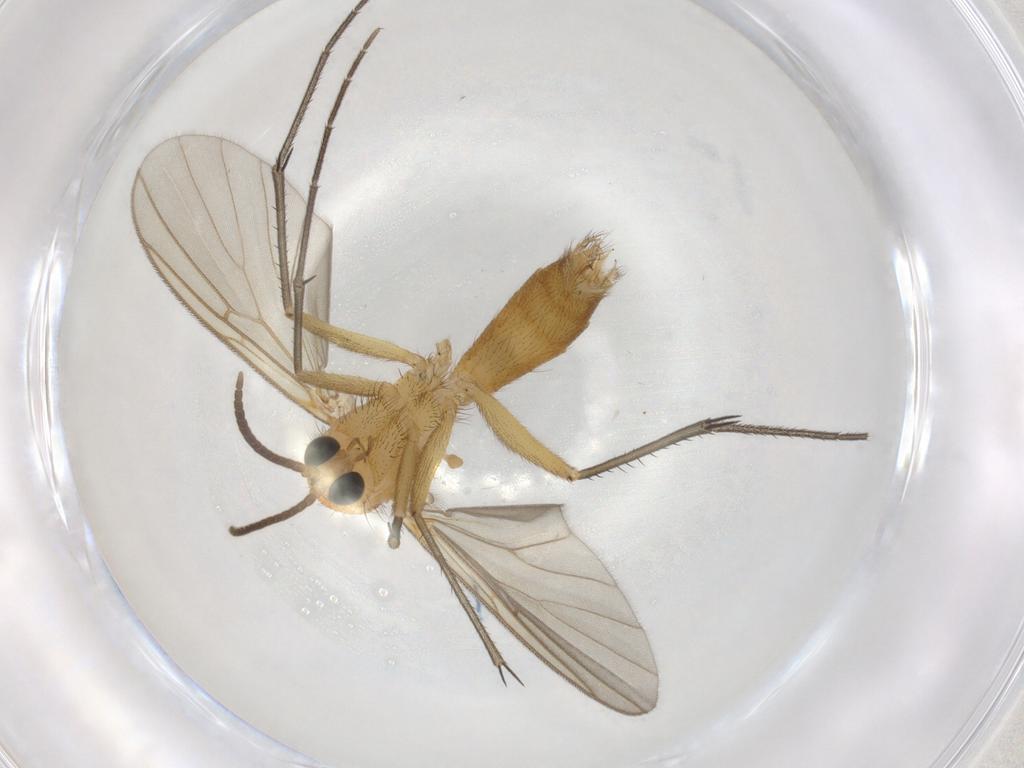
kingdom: Animalia
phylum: Arthropoda
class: Insecta
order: Diptera
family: Mycetophilidae
